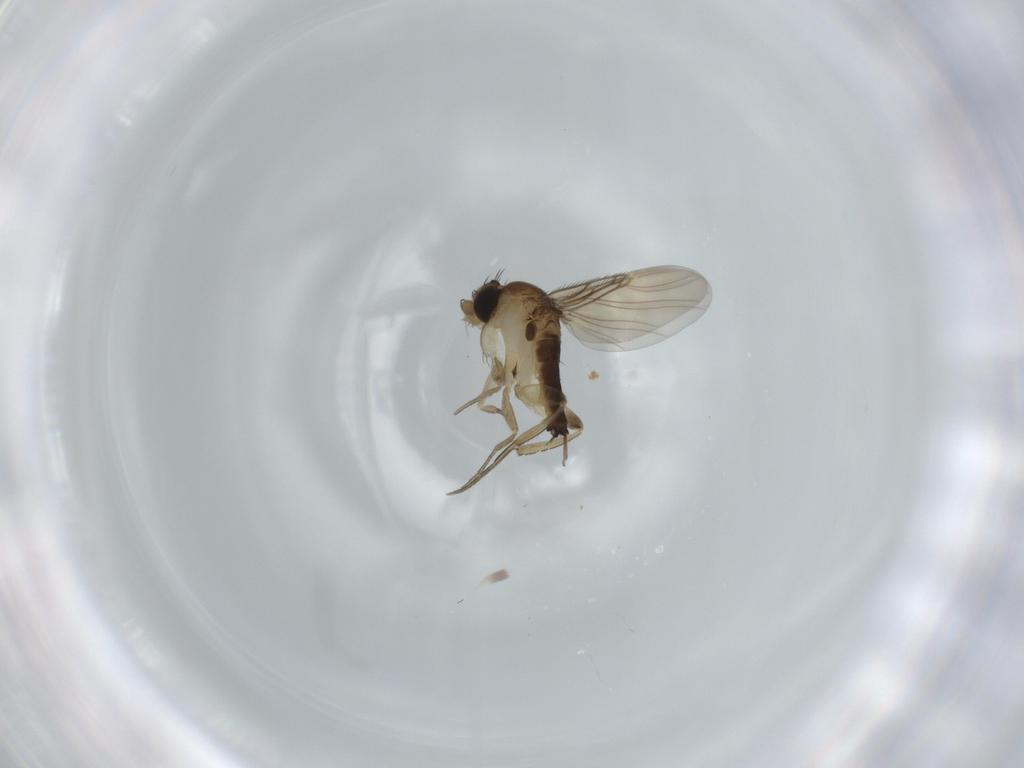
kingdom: Animalia
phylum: Arthropoda
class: Insecta
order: Diptera
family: Phoridae
